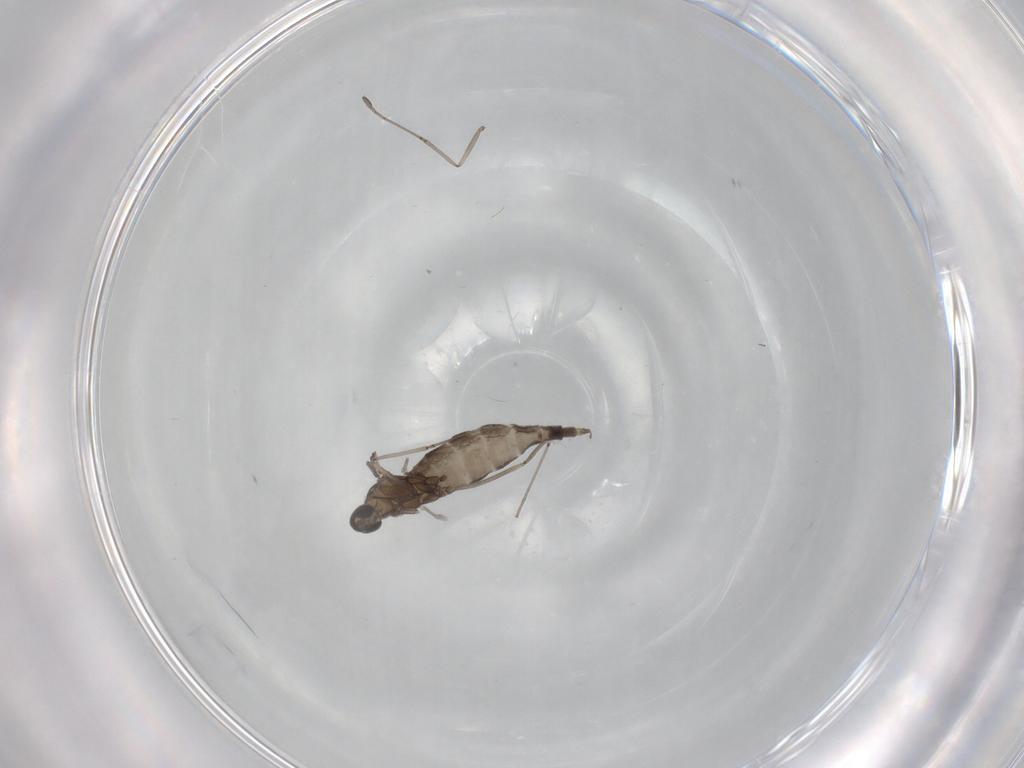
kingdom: Animalia
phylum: Arthropoda
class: Insecta
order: Diptera
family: Cecidomyiidae
